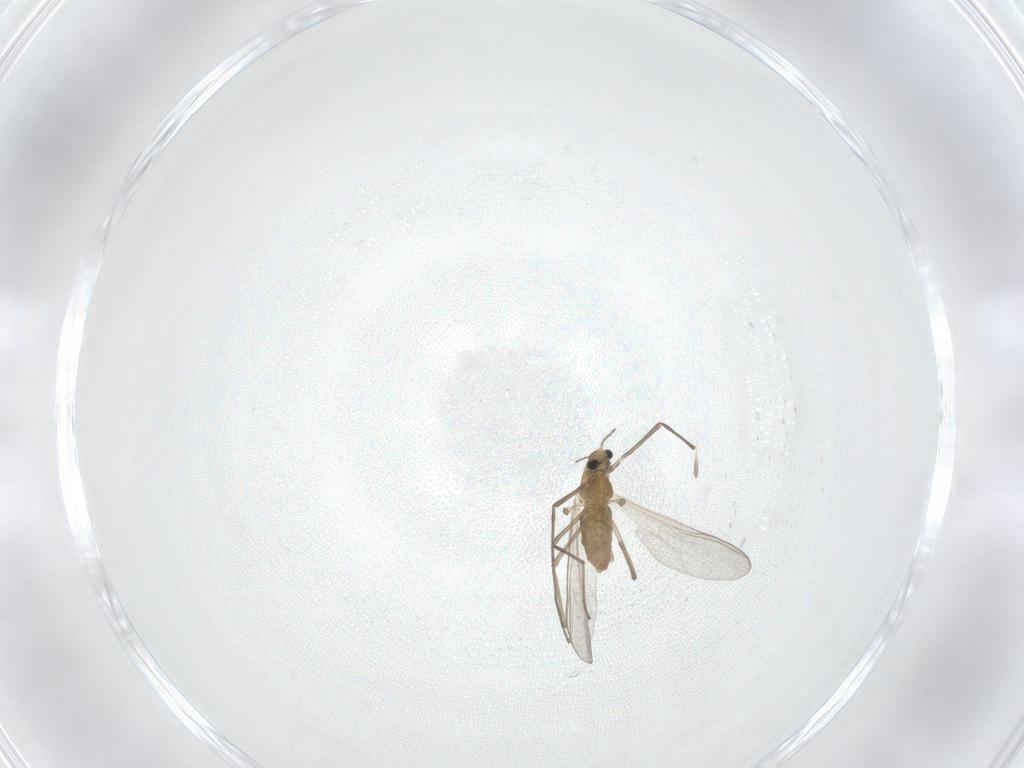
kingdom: Animalia
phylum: Arthropoda
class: Insecta
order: Diptera
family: Chironomidae
